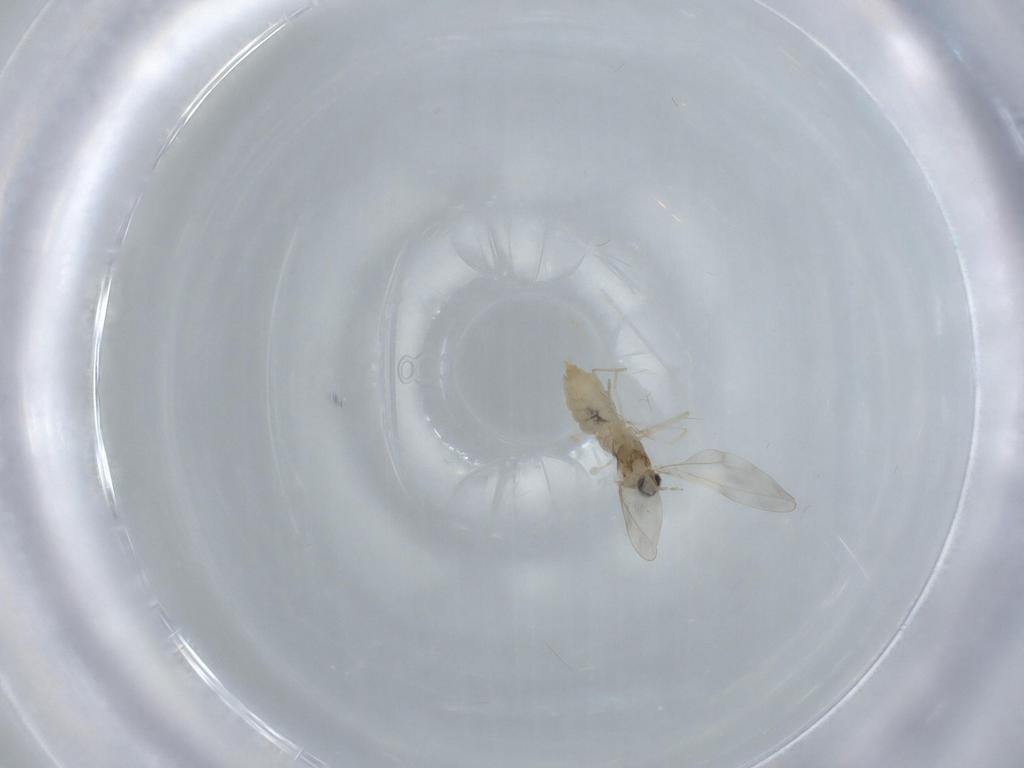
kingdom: Animalia
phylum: Arthropoda
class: Insecta
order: Diptera
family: Cecidomyiidae
